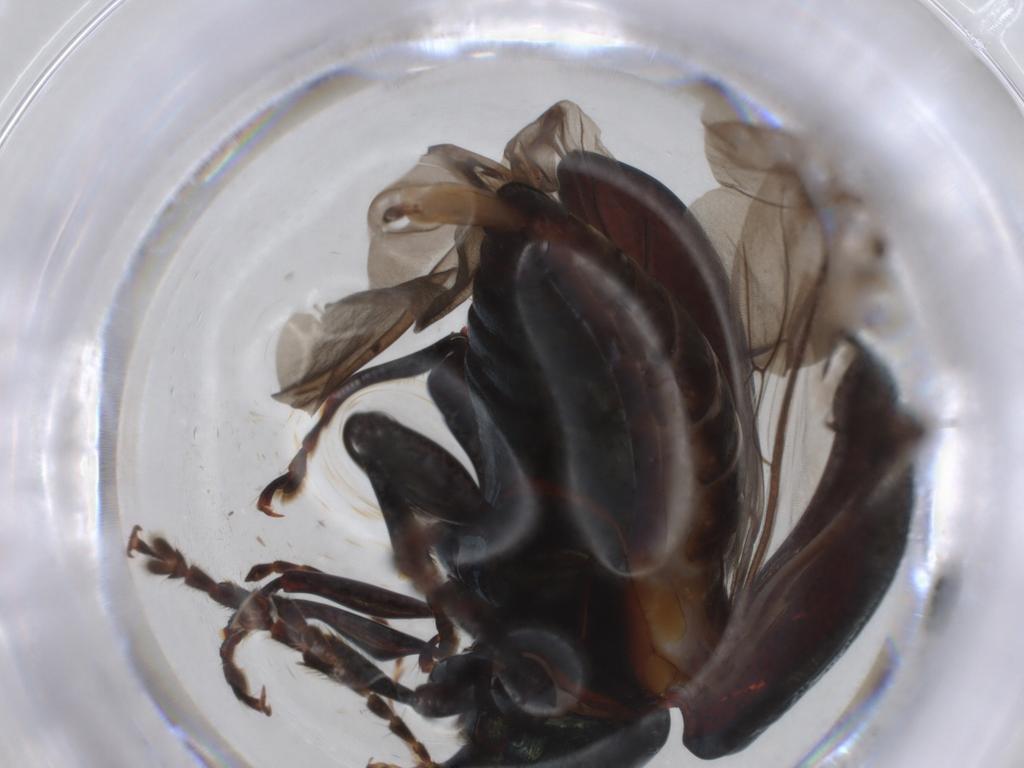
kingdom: Animalia
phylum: Arthropoda
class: Insecta
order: Coleoptera
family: Chrysomelidae
